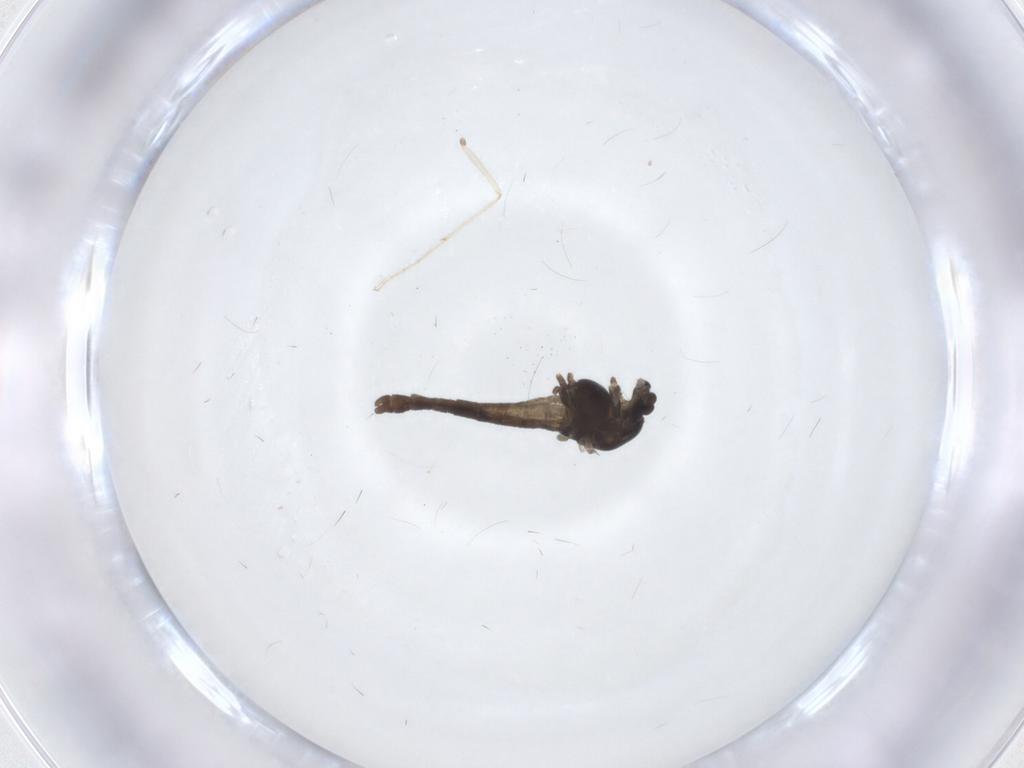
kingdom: Animalia
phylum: Arthropoda
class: Insecta
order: Diptera
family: Chironomidae
